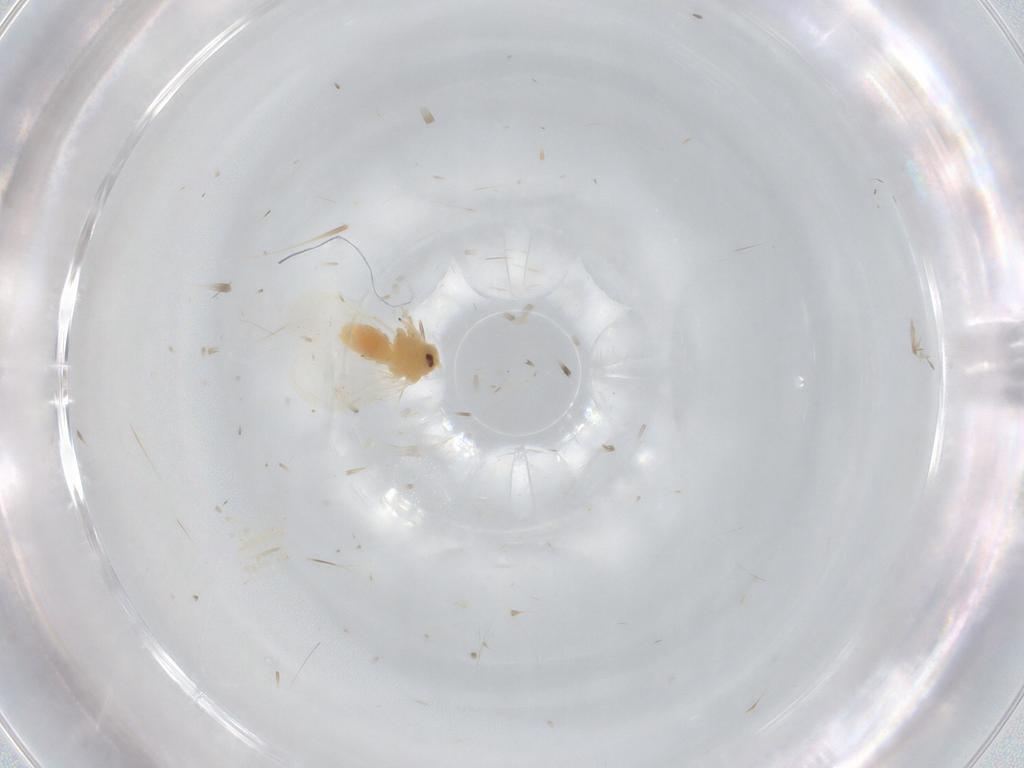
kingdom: Animalia
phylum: Arthropoda
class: Insecta
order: Hemiptera
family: Aleyrodidae
